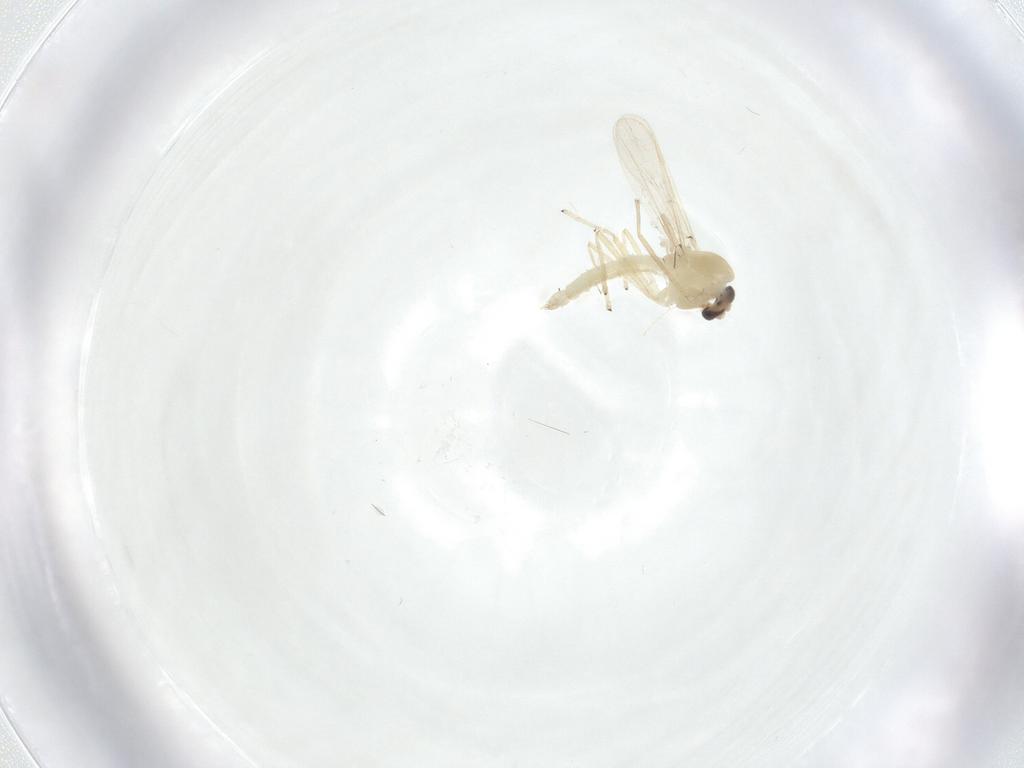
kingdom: Animalia
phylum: Arthropoda
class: Insecta
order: Diptera
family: Chironomidae
